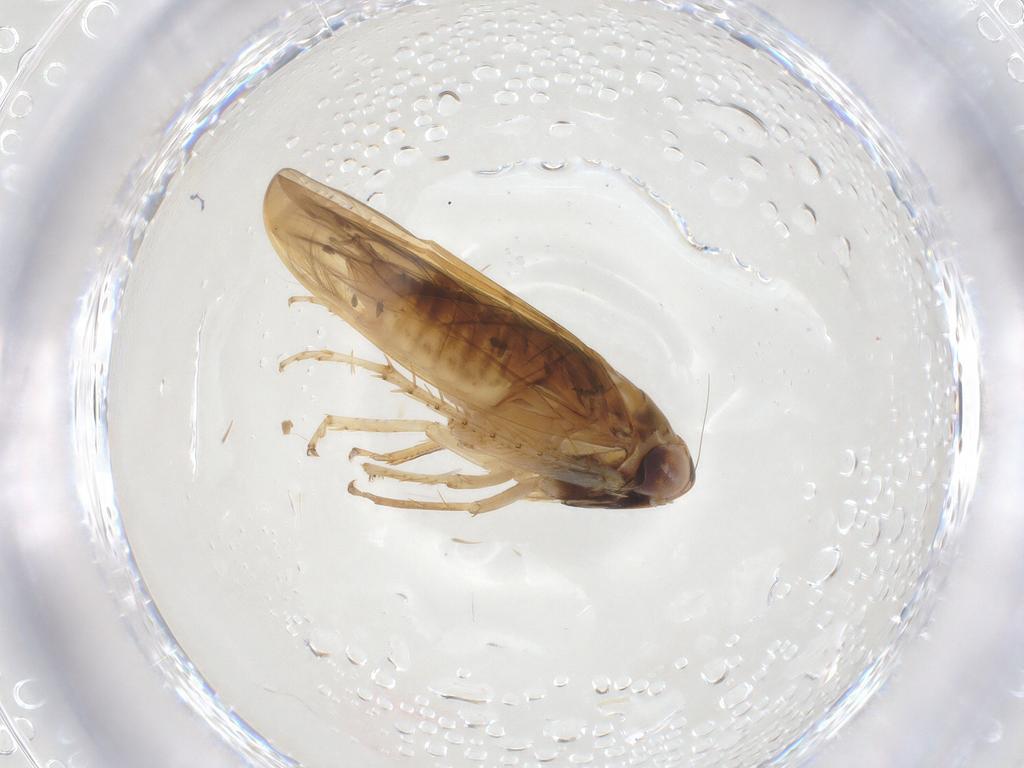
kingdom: Animalia
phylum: Arthropoda
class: Insecta
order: Hemiptera
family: Cicadellidae
